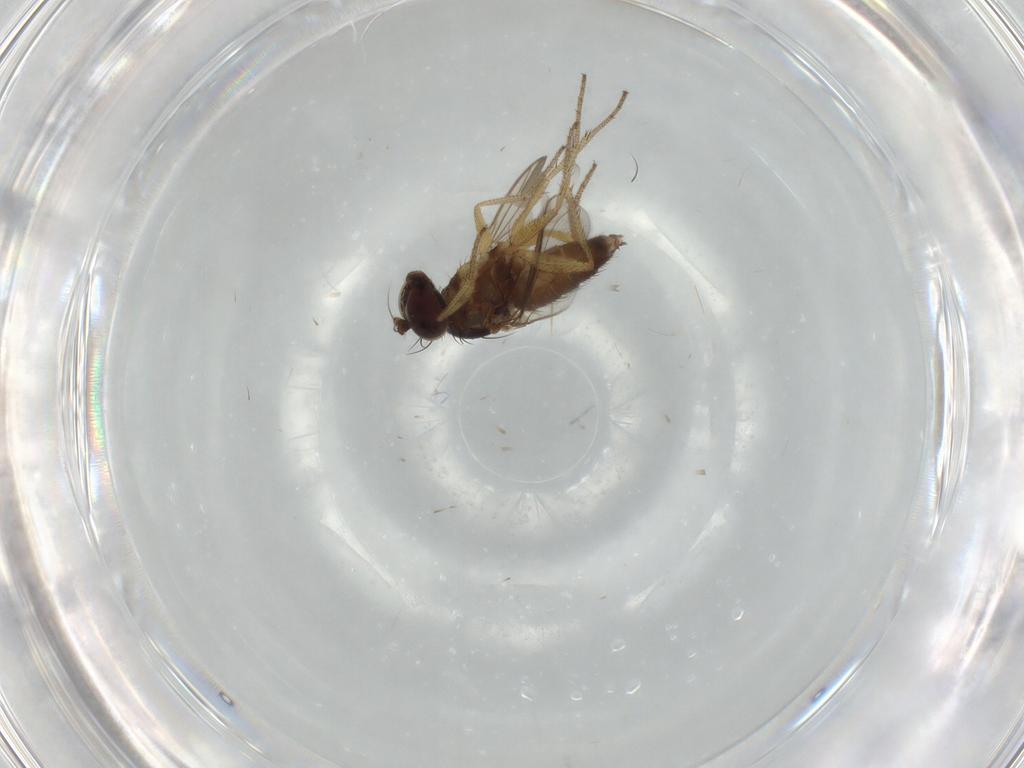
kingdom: Animalia
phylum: Arthropoda
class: Insecta
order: Diptera
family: Dolichopodidae
